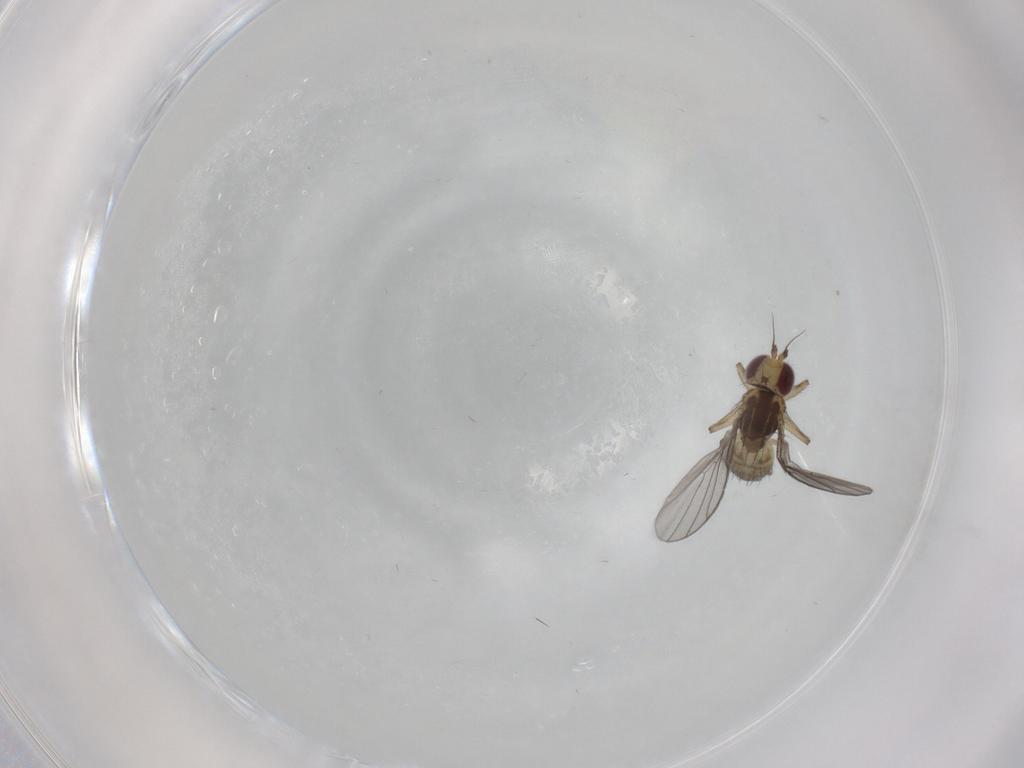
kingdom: Animalia
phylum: Arthropoda
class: Insecta
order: Diptera
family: Agromyzidae
